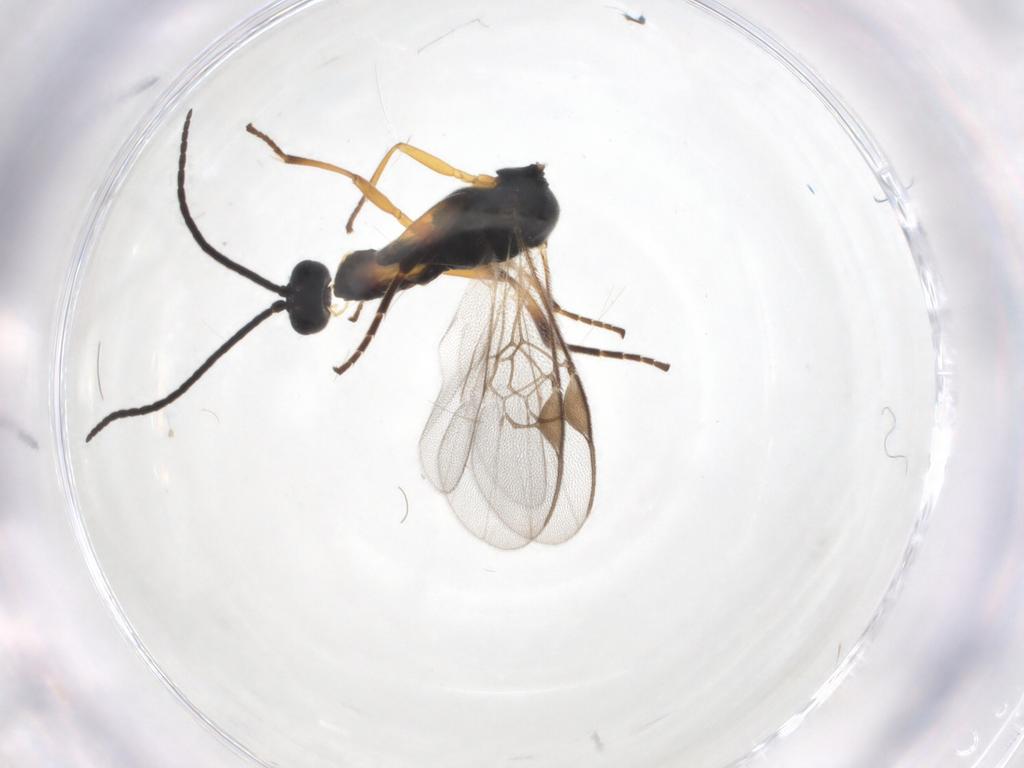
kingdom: Animalia
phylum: Arthropoda
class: Insecta
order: Hymenoptera
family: Braconidae
